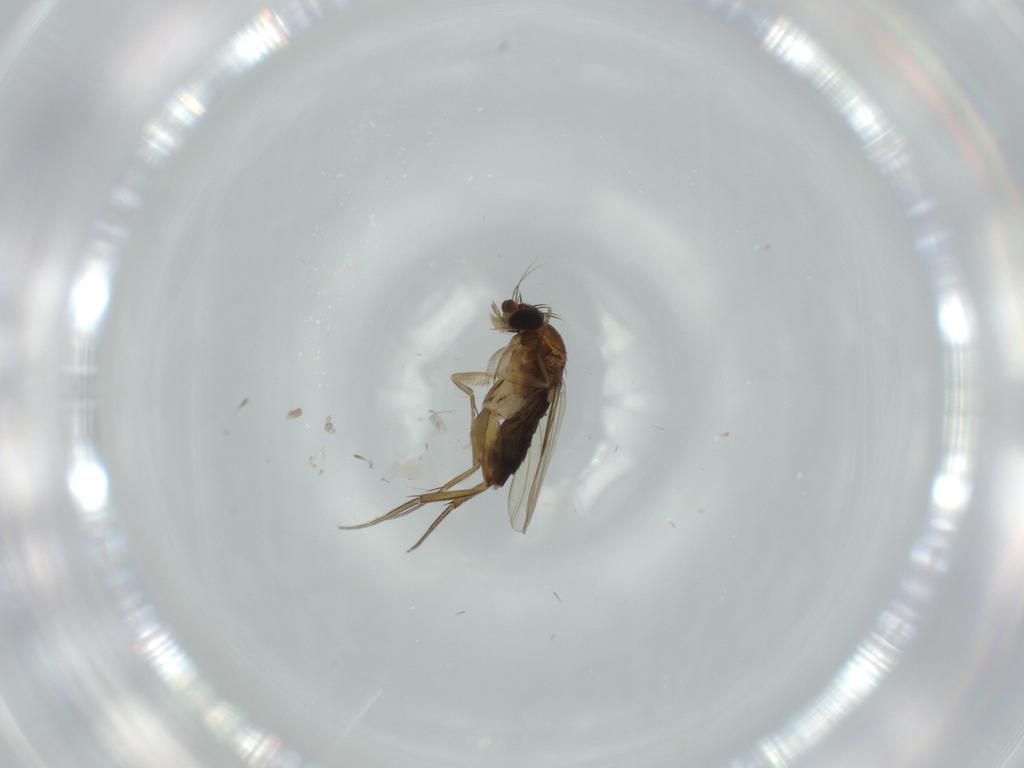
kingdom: Animalia
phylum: Arthropoda
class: Insecta
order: Diptera
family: Phoridae
